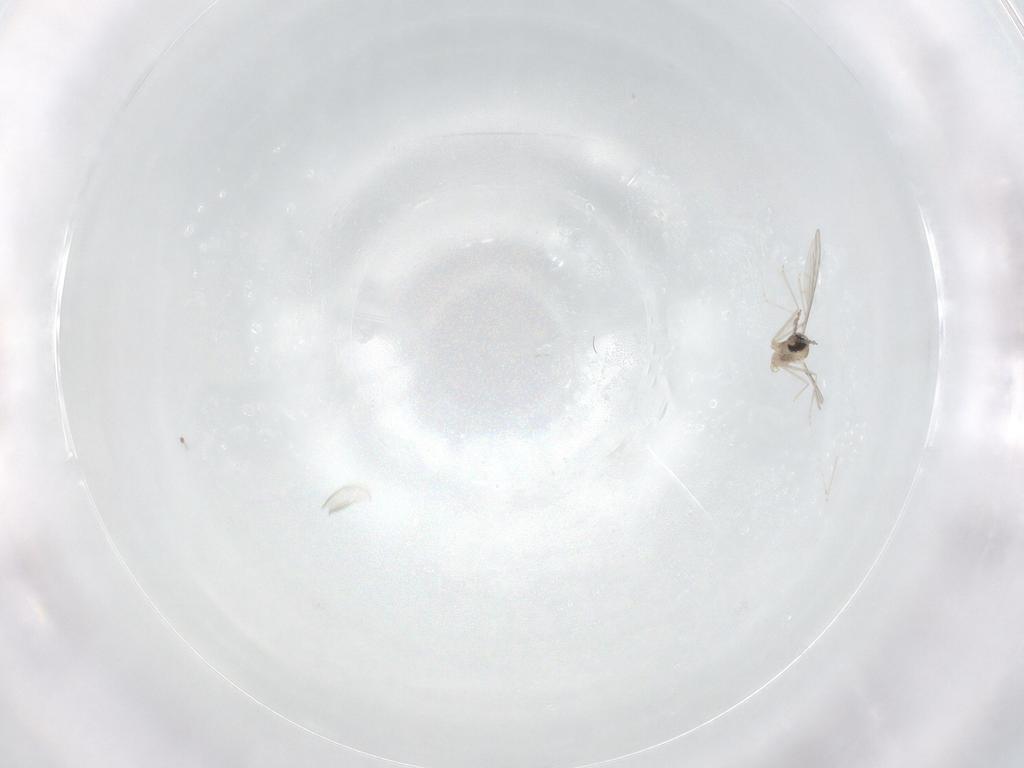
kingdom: Animalia
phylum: Arthropoda
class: Insecta
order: Diptera
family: Cecidomyiidae
